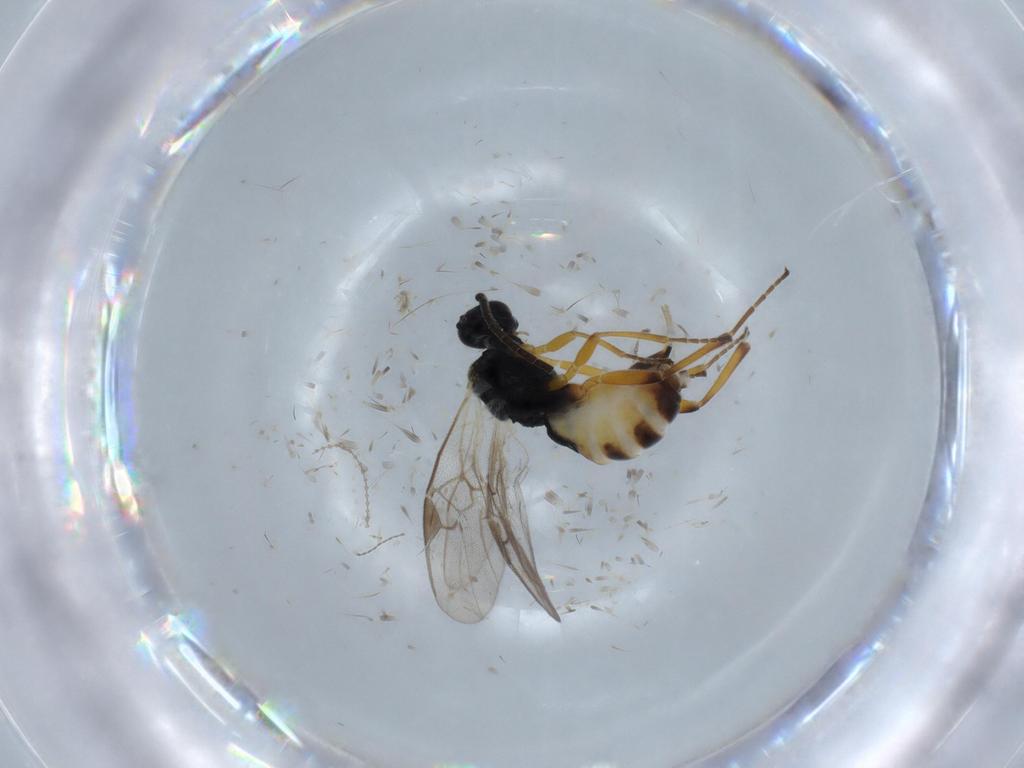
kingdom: Animalia
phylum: Arthropoda
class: Insecta
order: Hymenoptera
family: Braconidae
